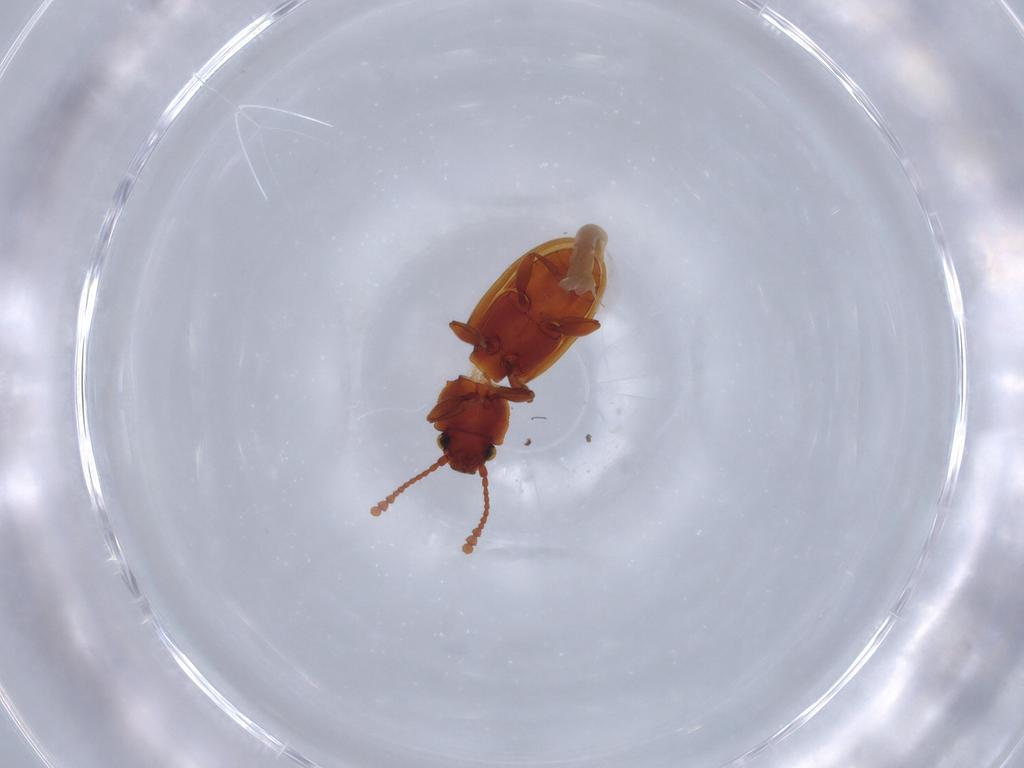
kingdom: Animalia
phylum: Arthropoda
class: Insecta
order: Coleoptera
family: Silvanidae
